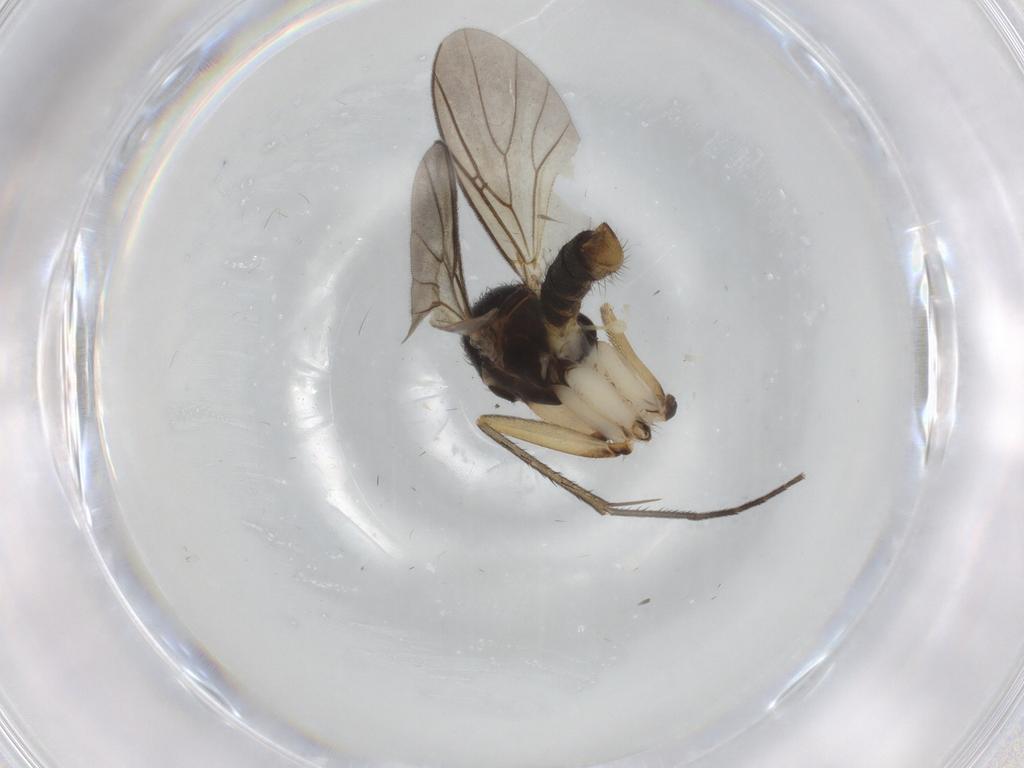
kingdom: Animalia
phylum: Arthropoda
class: Insecta
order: Diptera
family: Mycetophilidae
